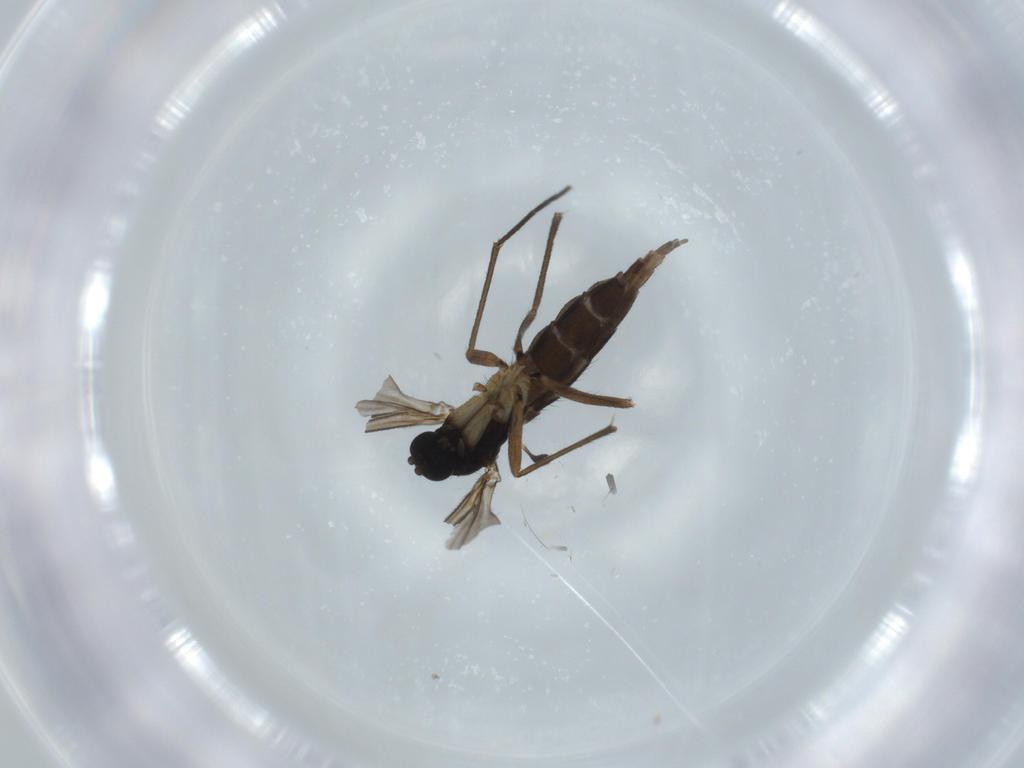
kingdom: Animalia
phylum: Arthropoda
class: Insecta
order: Diptera
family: Sciaridae
